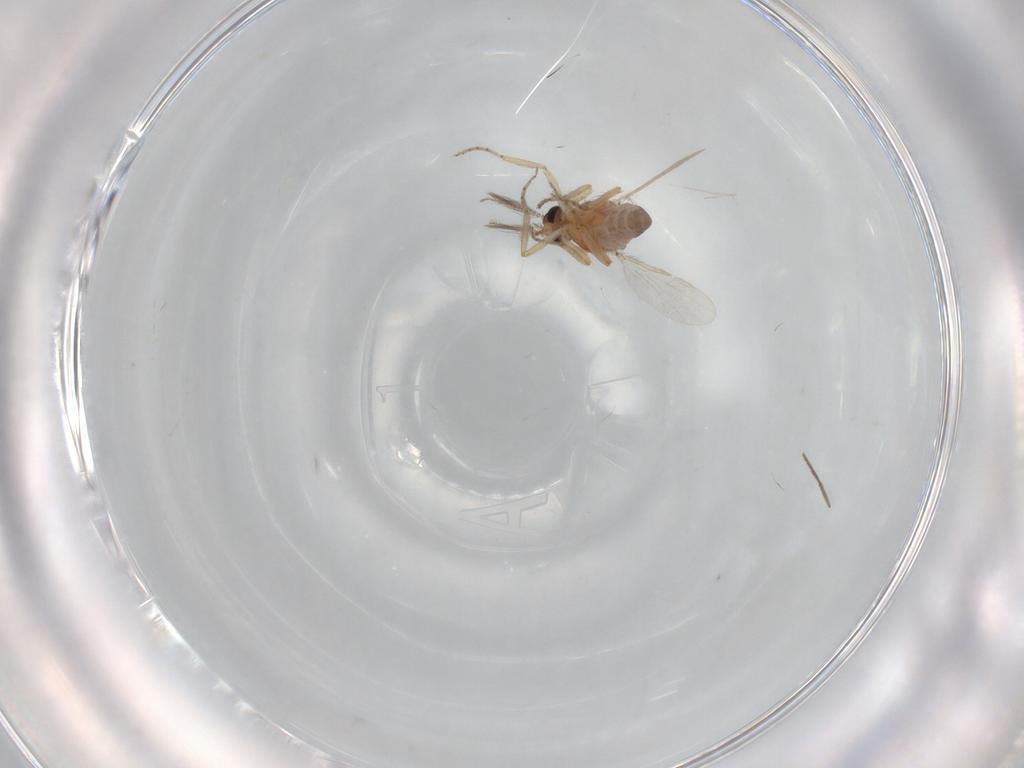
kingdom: Animalia
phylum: Arthropoda
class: Insecta
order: Diptera
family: Ceratopogonidae
